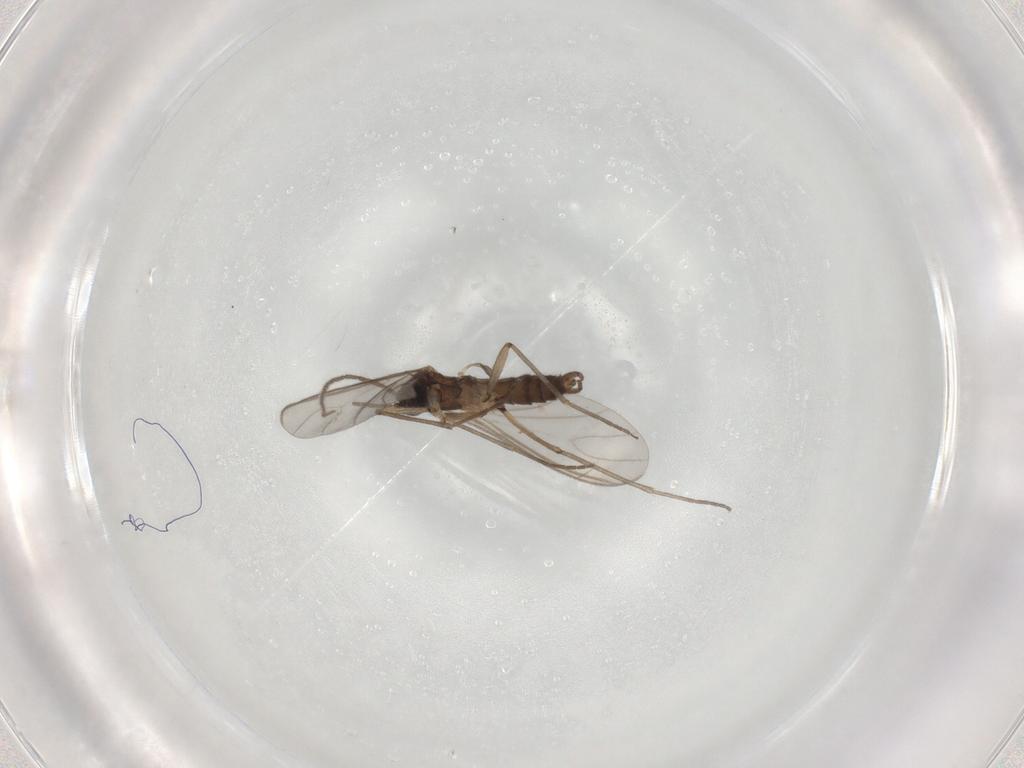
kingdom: Animalia
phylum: Arthropoda
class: Insecta
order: Diptera
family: Sciaridae
